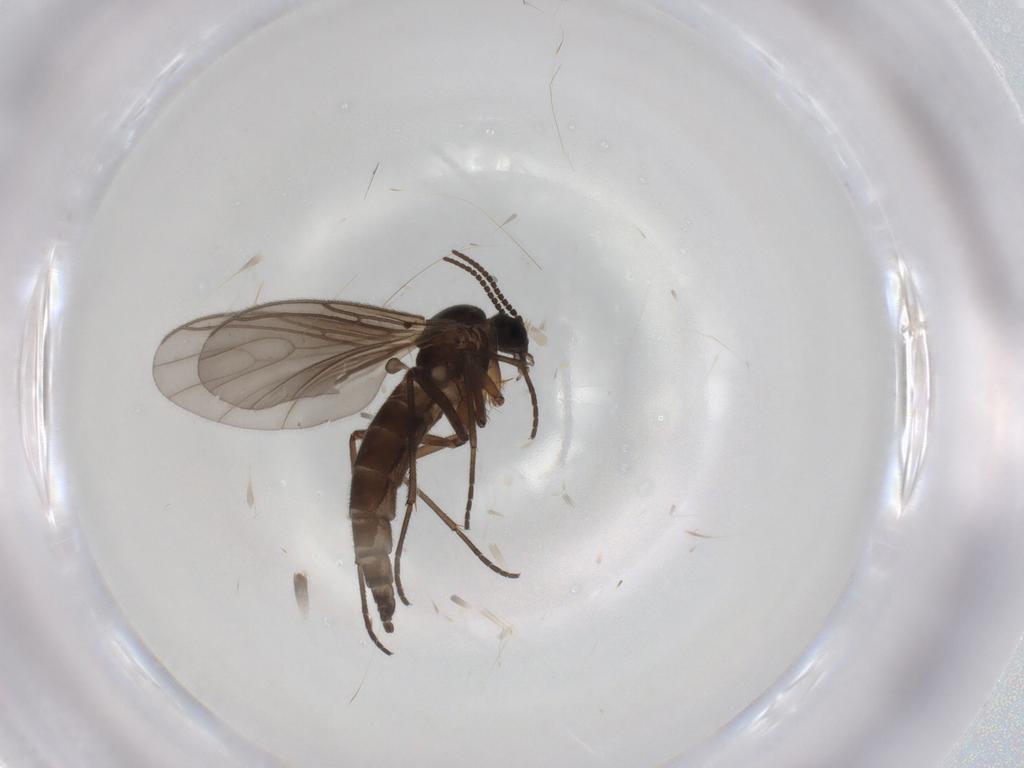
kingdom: Animalia
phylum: Arthropoda
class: Insecta
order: Diptera
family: Sciaridae
